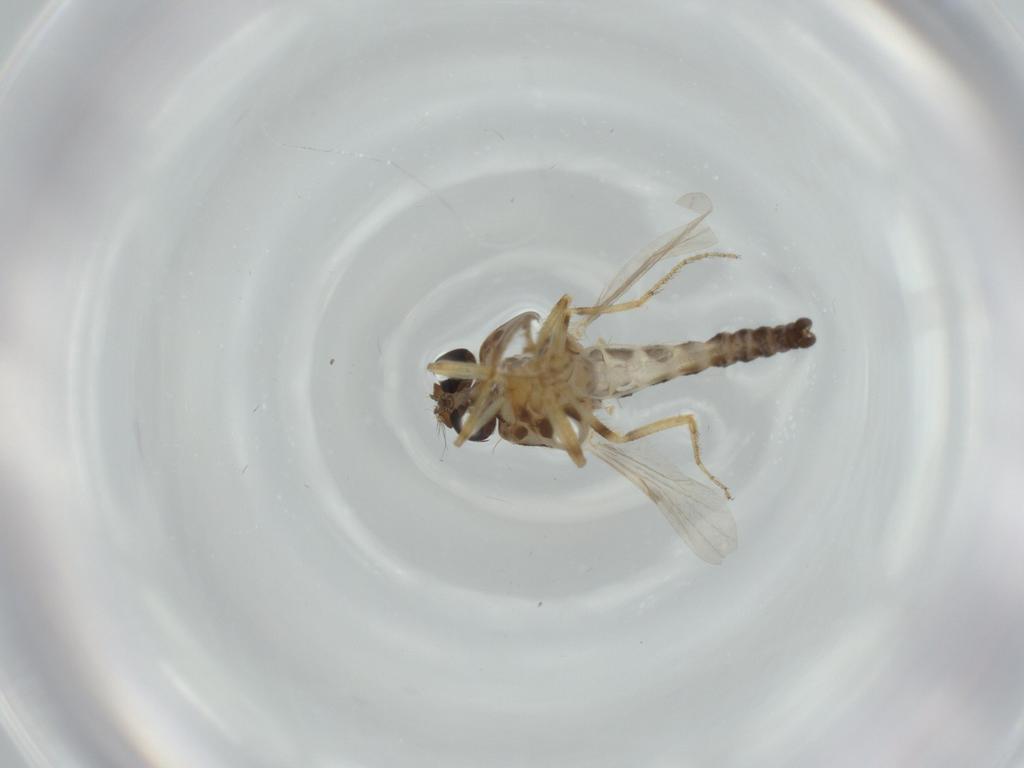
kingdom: Animalia
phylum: Arthropoda
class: Insecta
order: Diptera
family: Sciaridae
